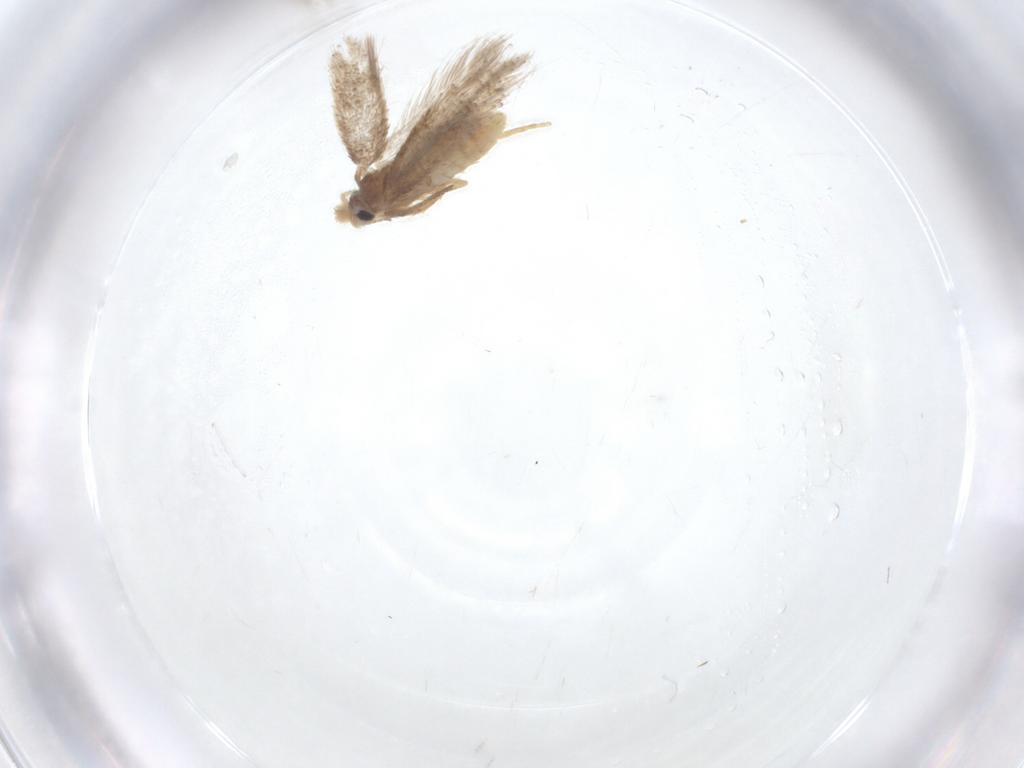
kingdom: Animalia
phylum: Arthropoda
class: Insecta
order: Lepidoptera
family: Nepticulidae
